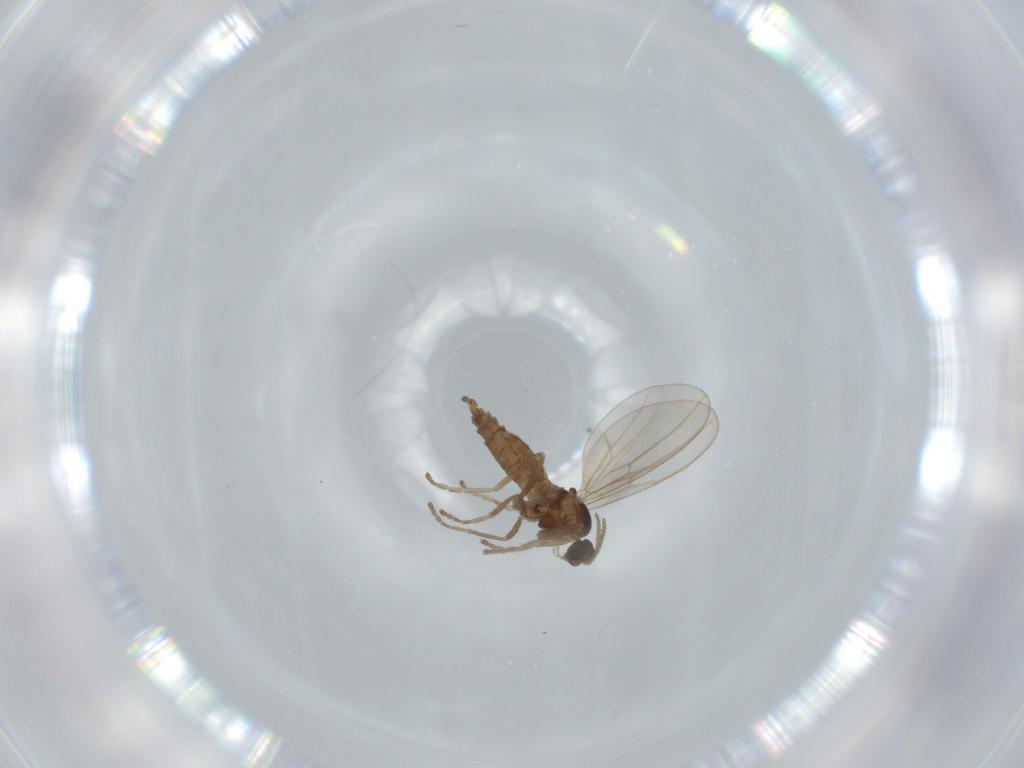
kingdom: Animalia
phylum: Arthropoda
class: Insecta
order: Diptera
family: Cecidomyiidae
